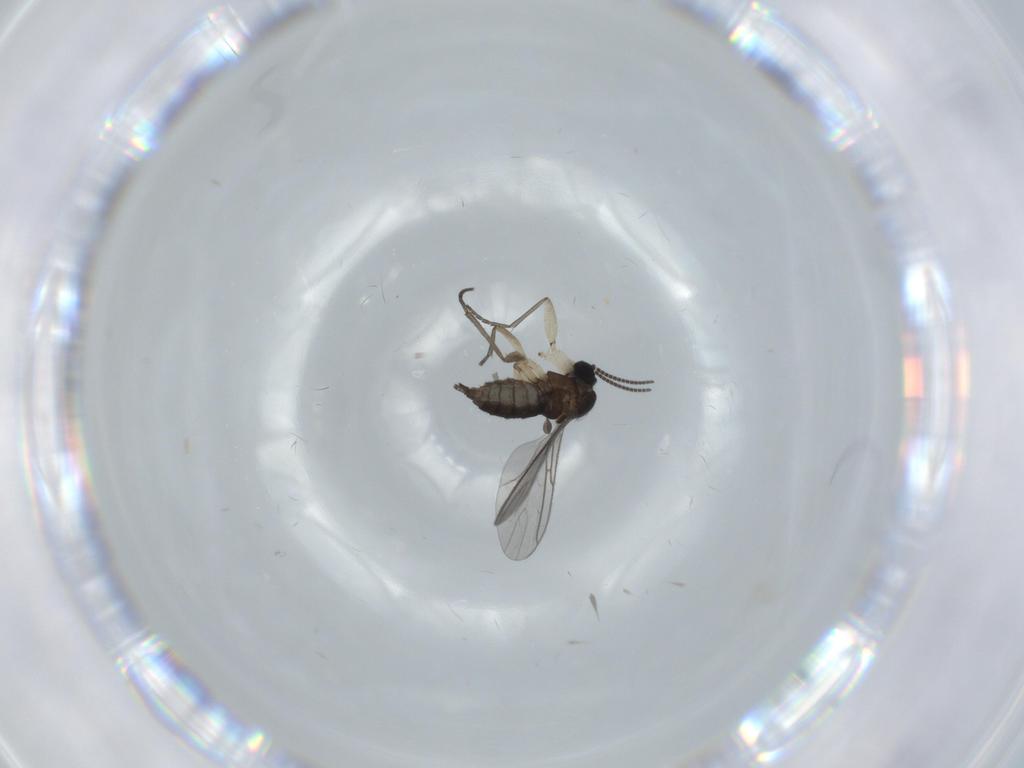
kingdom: Animalia
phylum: Arthropoda
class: Insecta
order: Diptera
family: Sciaridae
